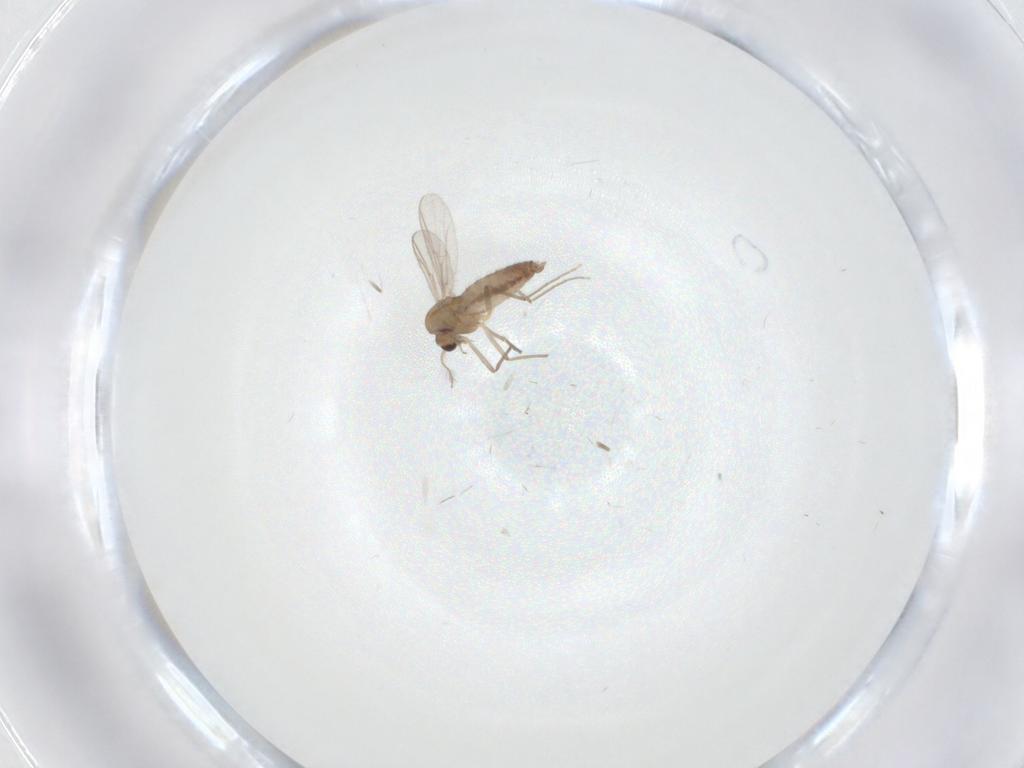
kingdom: Animalia
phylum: Arthropoda
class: Insecta
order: Diptera
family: Chironomidae
